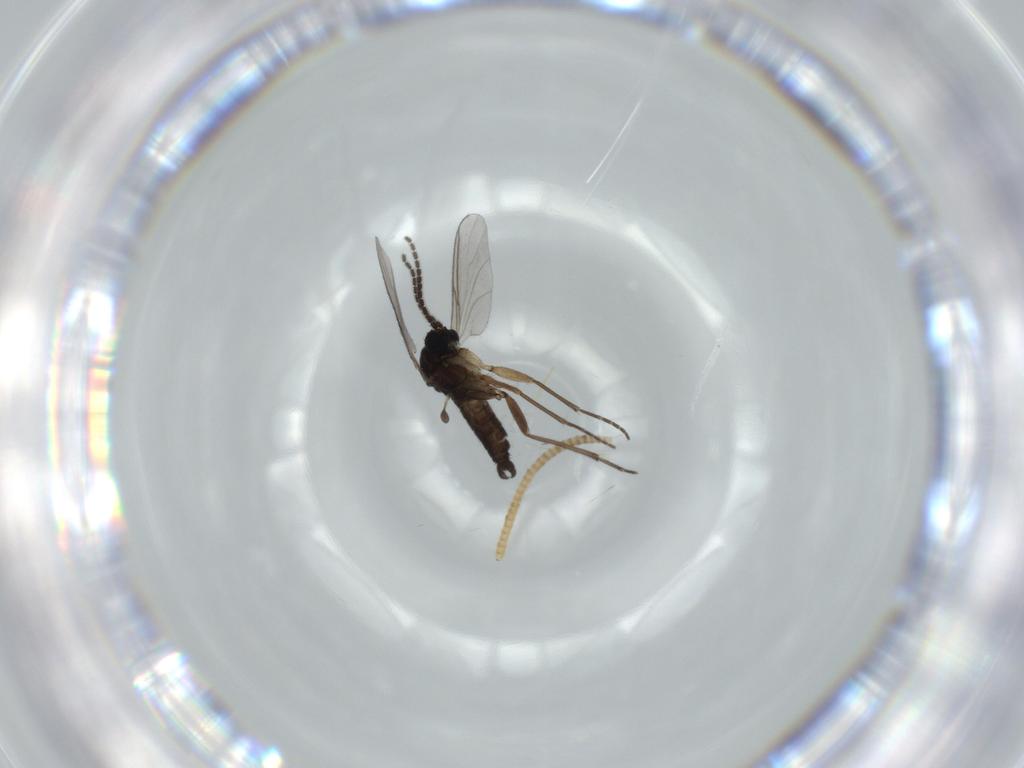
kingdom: Animalia
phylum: Arthropoda
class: Insecta
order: Diptera
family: Sciaridae
